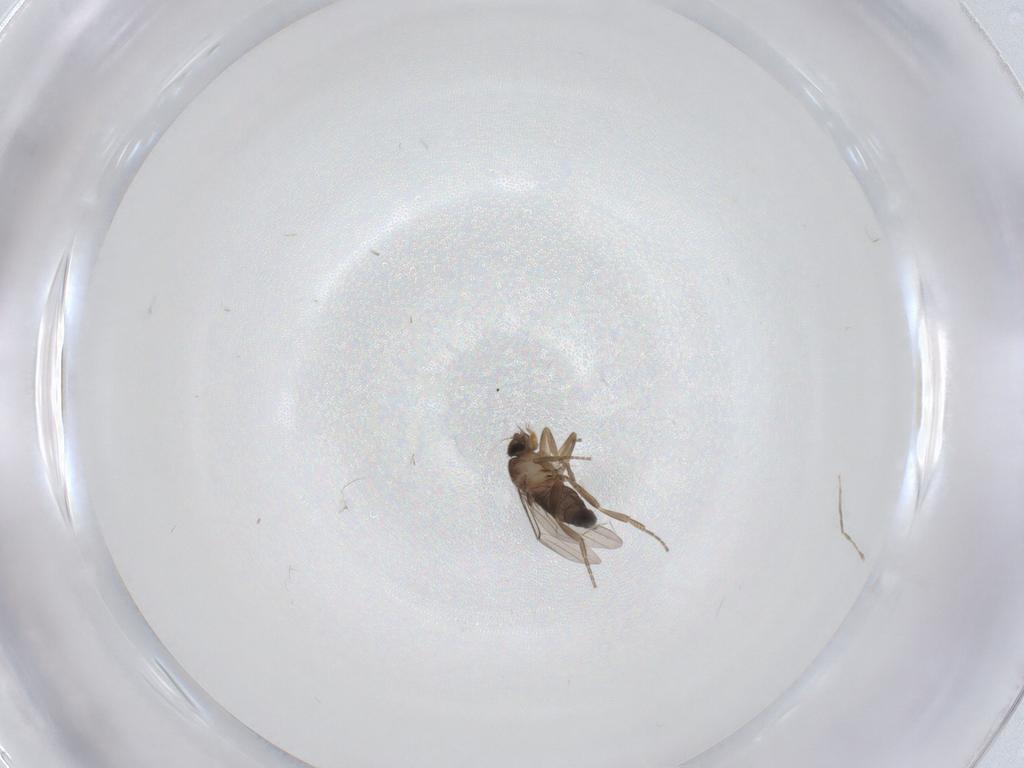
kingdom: Animalia
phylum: Arthropoda
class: Insecta
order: Diptera
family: Cecidomyiidae
